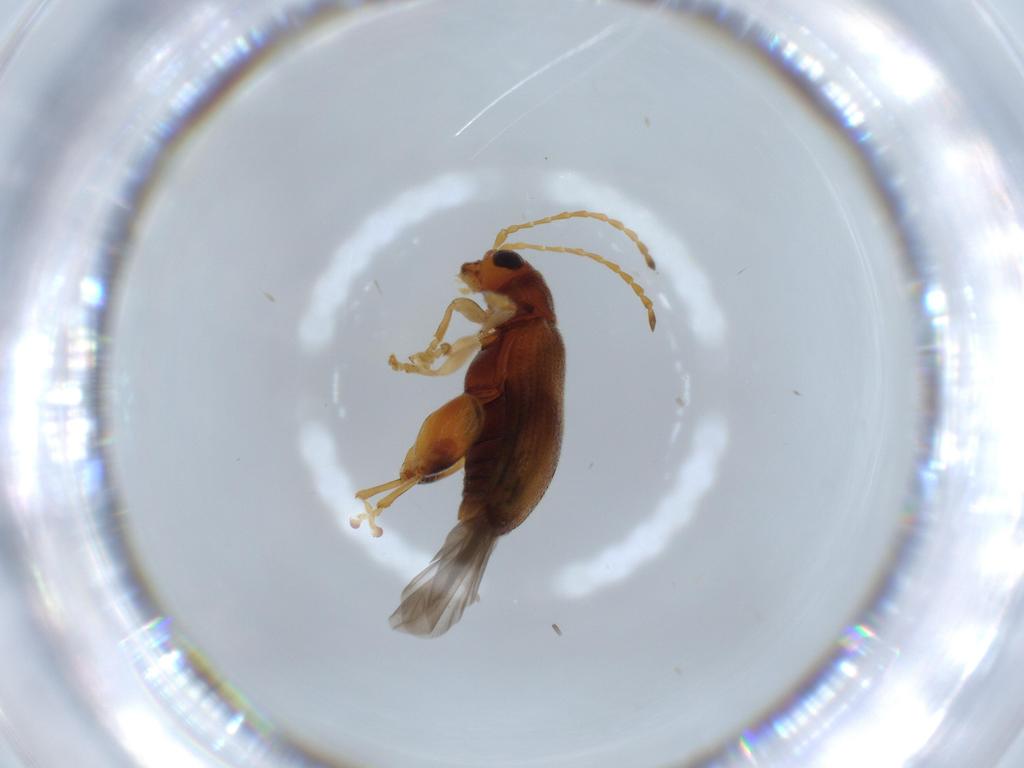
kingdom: Animalia
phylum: Arthropoda
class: Insecta
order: Coleoptera
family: Chrysomelidae
